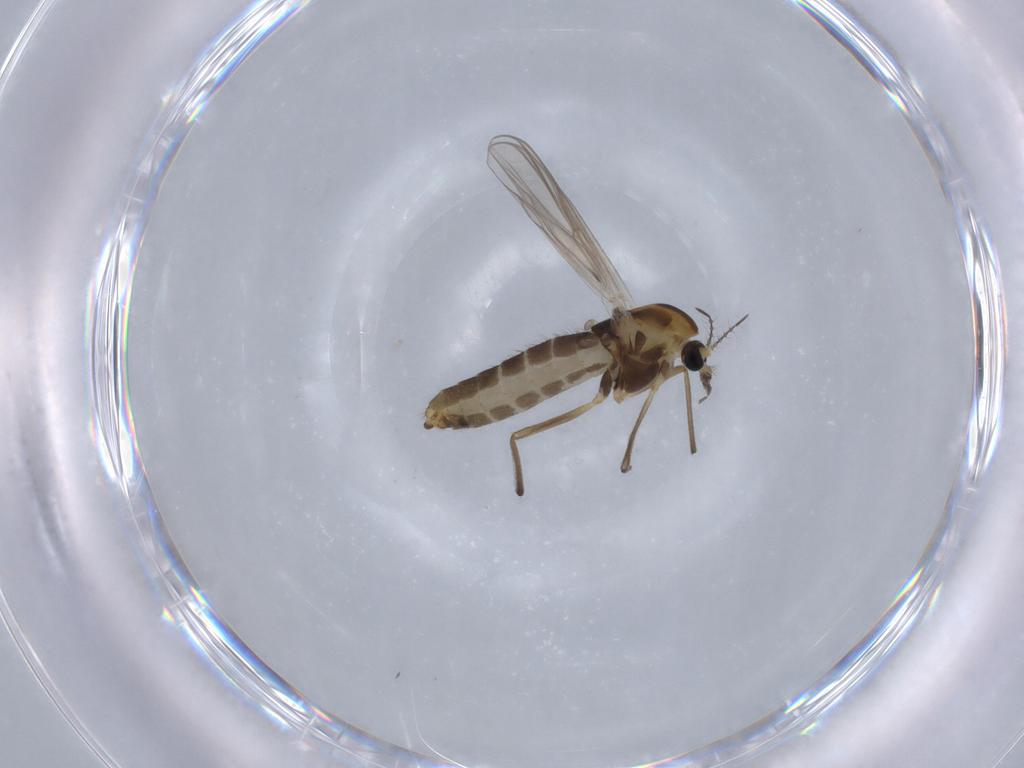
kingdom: Animalia
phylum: Arthropoda
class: Insecta
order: Diptera
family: Chironomidae
